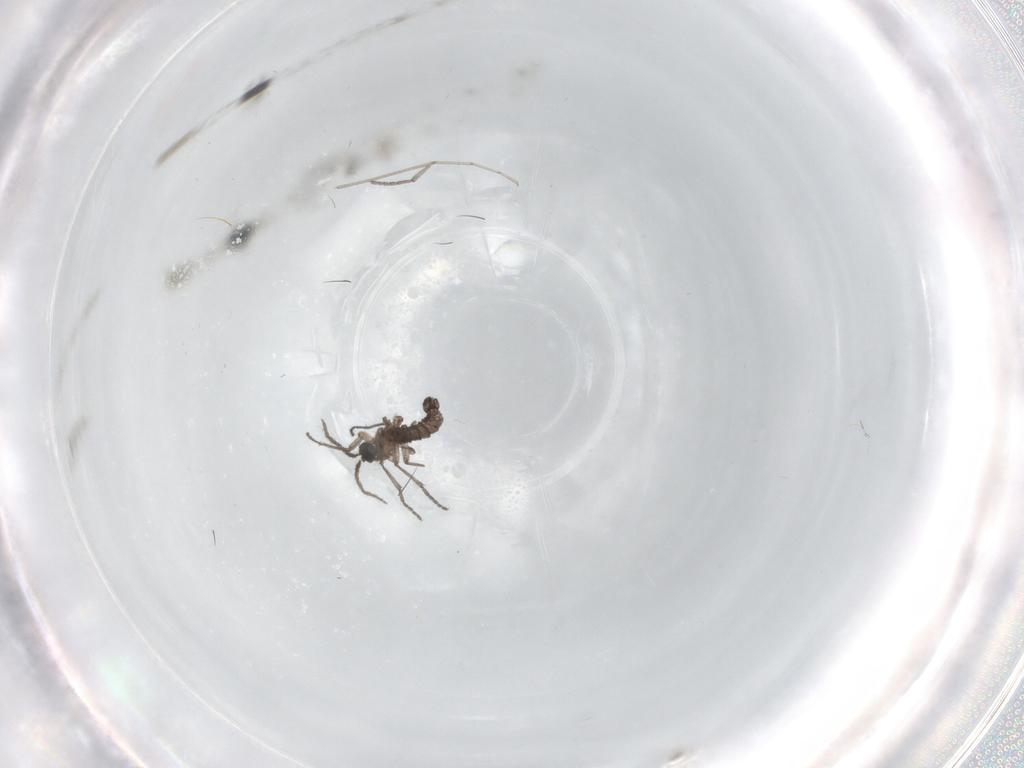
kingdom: Animalia
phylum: Arthropoda
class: Insecta
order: Diptera
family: Sciaridae
